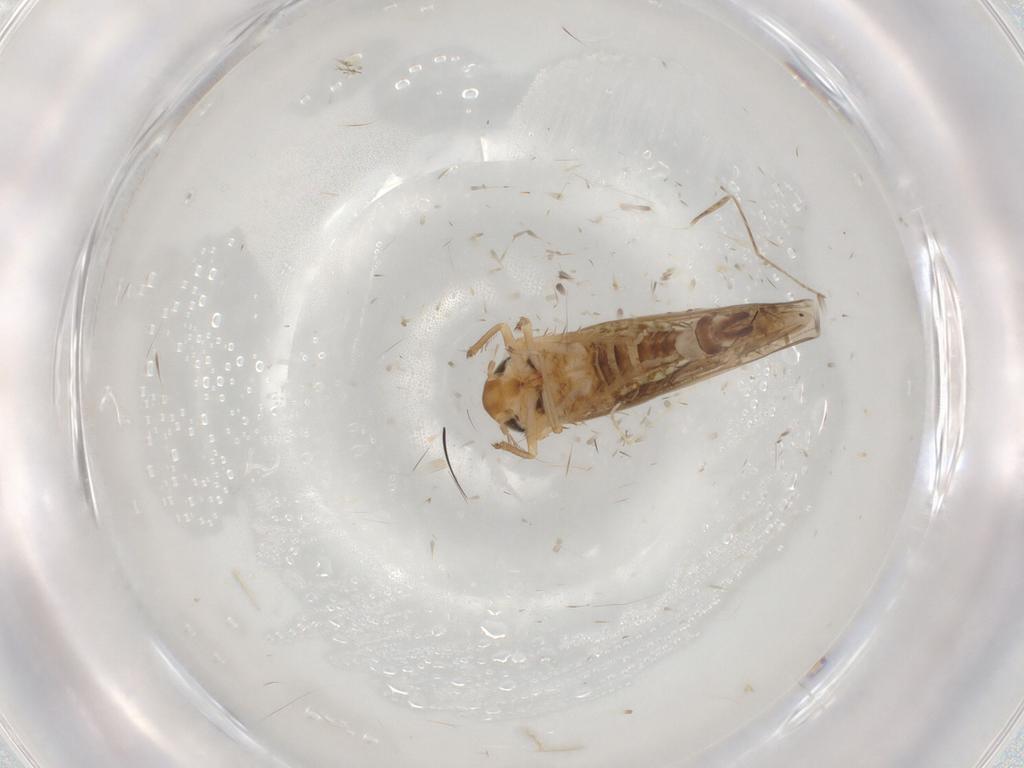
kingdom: Animalia
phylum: Arthropoda
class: Insecta
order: Hemiptera
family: Cicadellidae
